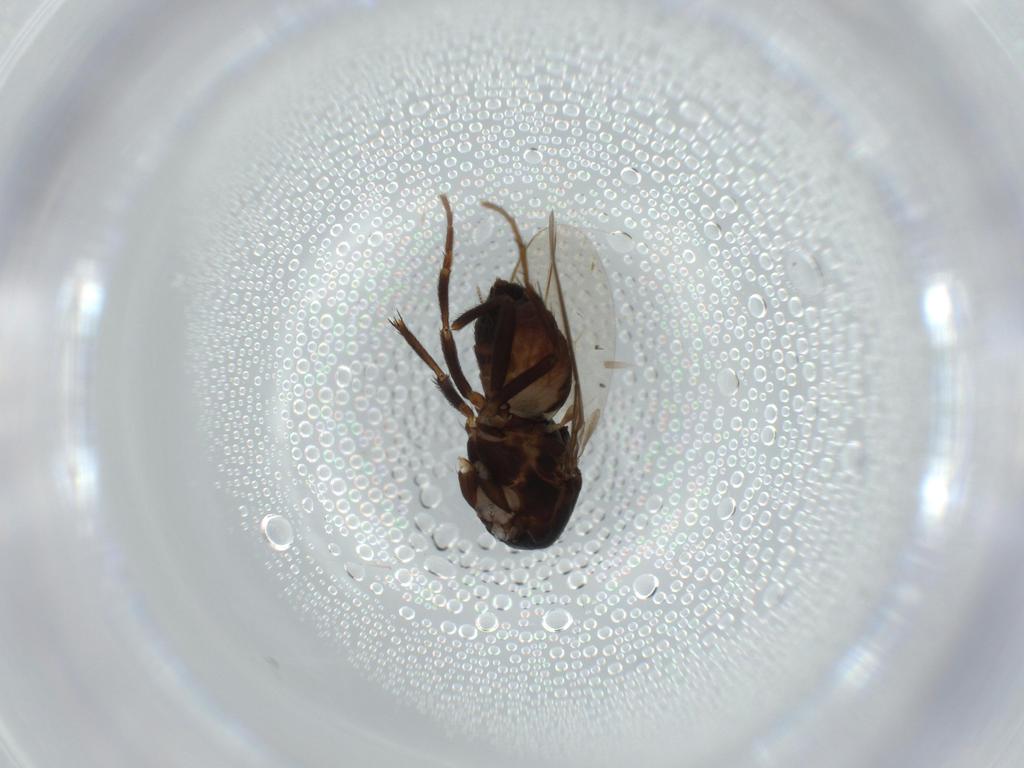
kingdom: Animalia
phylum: Arthropoda
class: Insecta
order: Diptera
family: Sphaeroceridae
